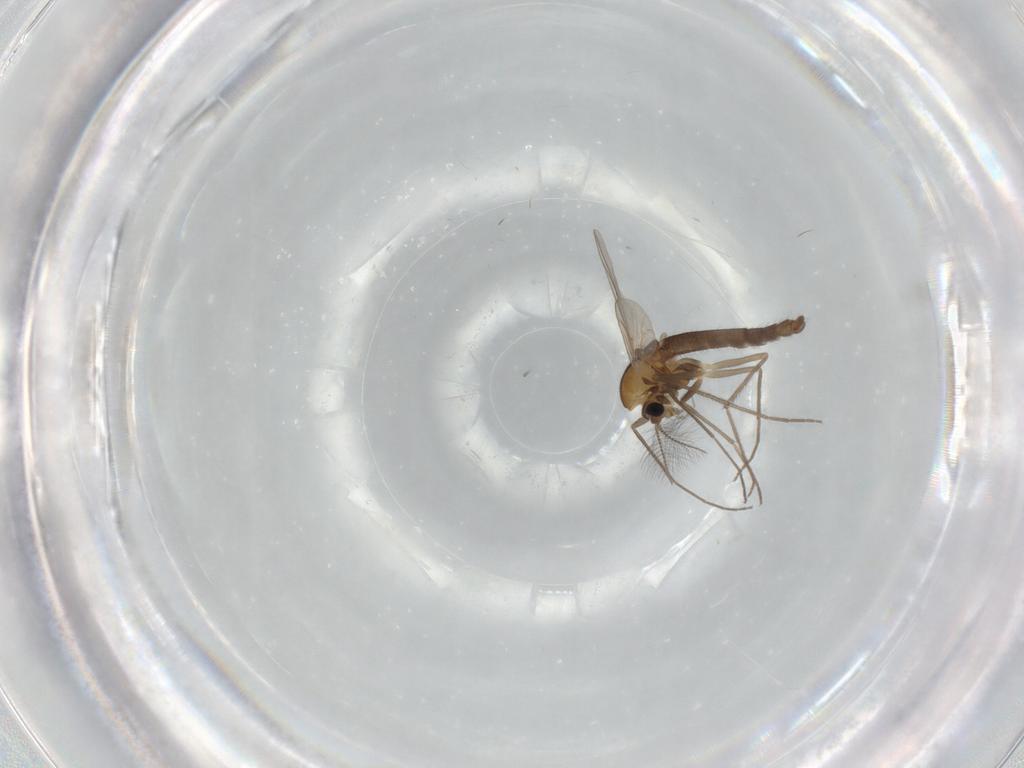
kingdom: Animalia
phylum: Arthropoda
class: Insecta
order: Diptera
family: Chironomidae
